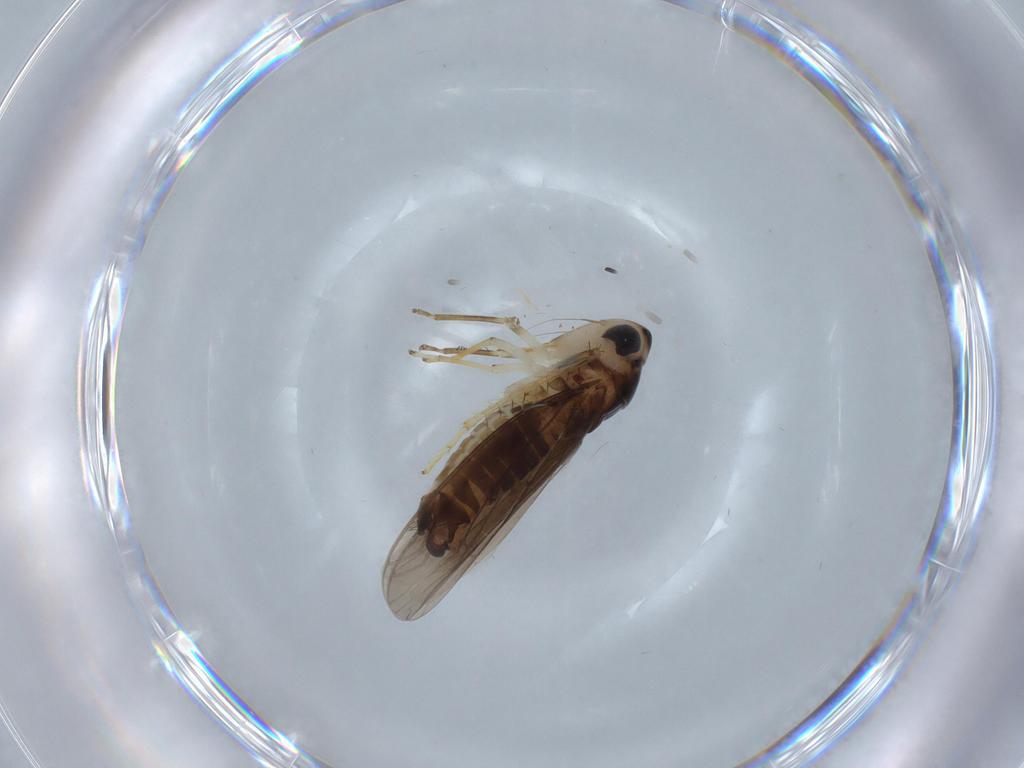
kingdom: Animalia
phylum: Arthropoda
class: Insecta
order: Hemiptera
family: Cicadellidae
